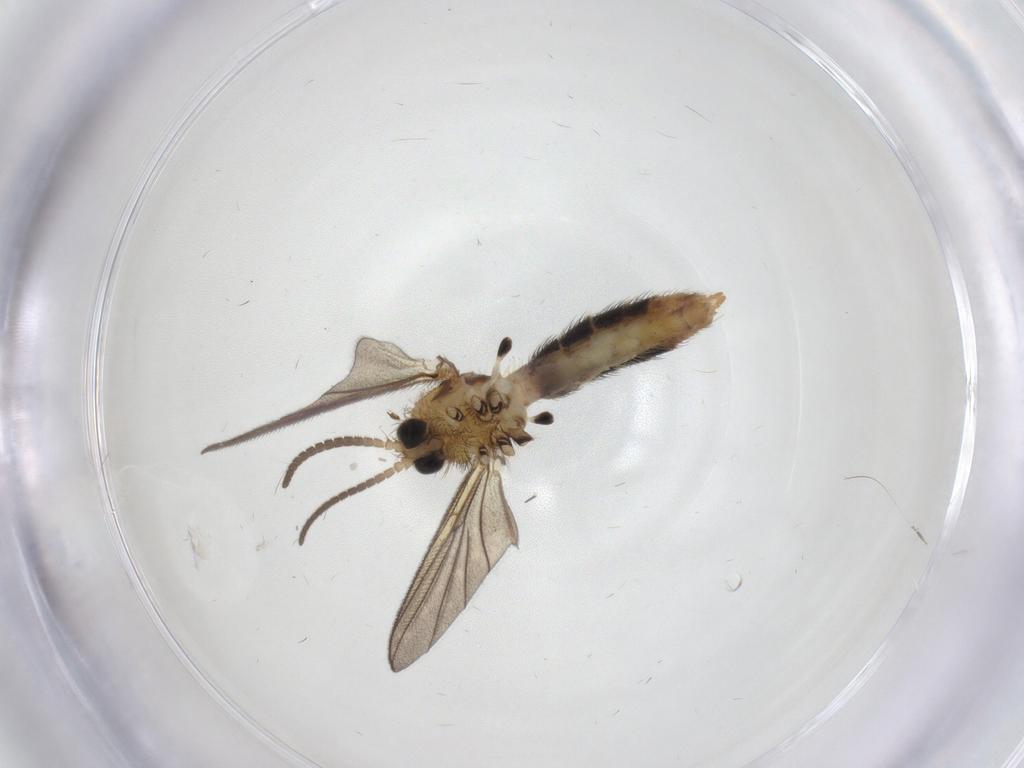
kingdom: Animalia
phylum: Arthropoda
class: Insecta
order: Diptera
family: Mycetophilidae
